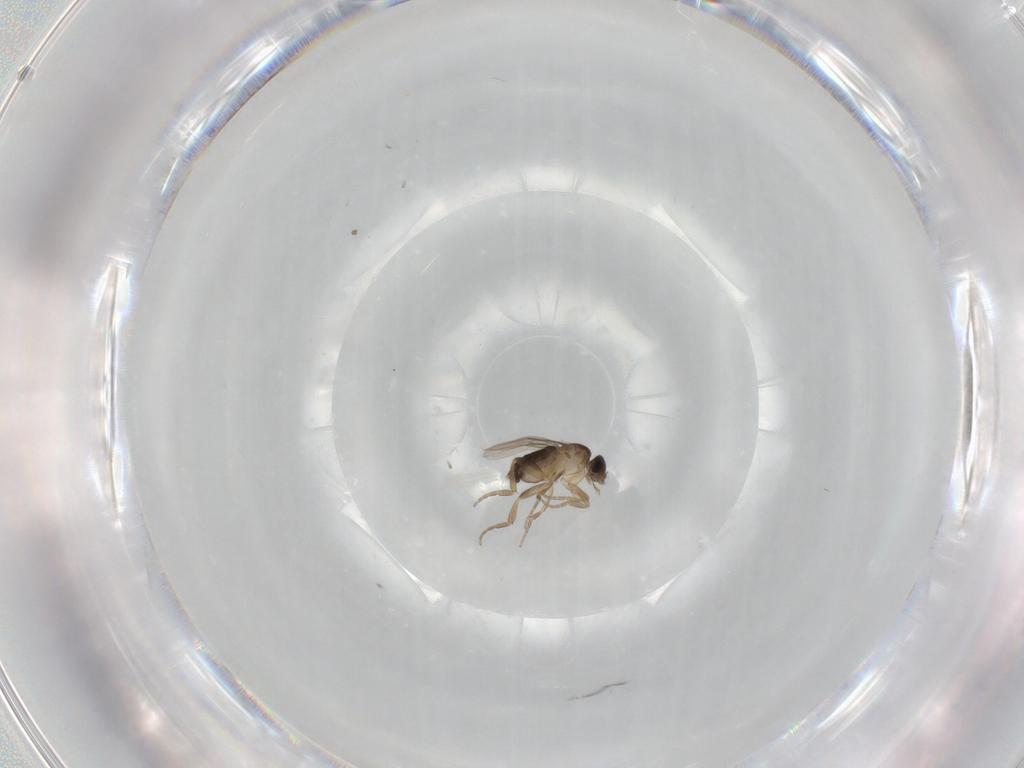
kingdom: Animalia
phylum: Arthropoda
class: Insecta
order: Diptera
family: Phoridae
